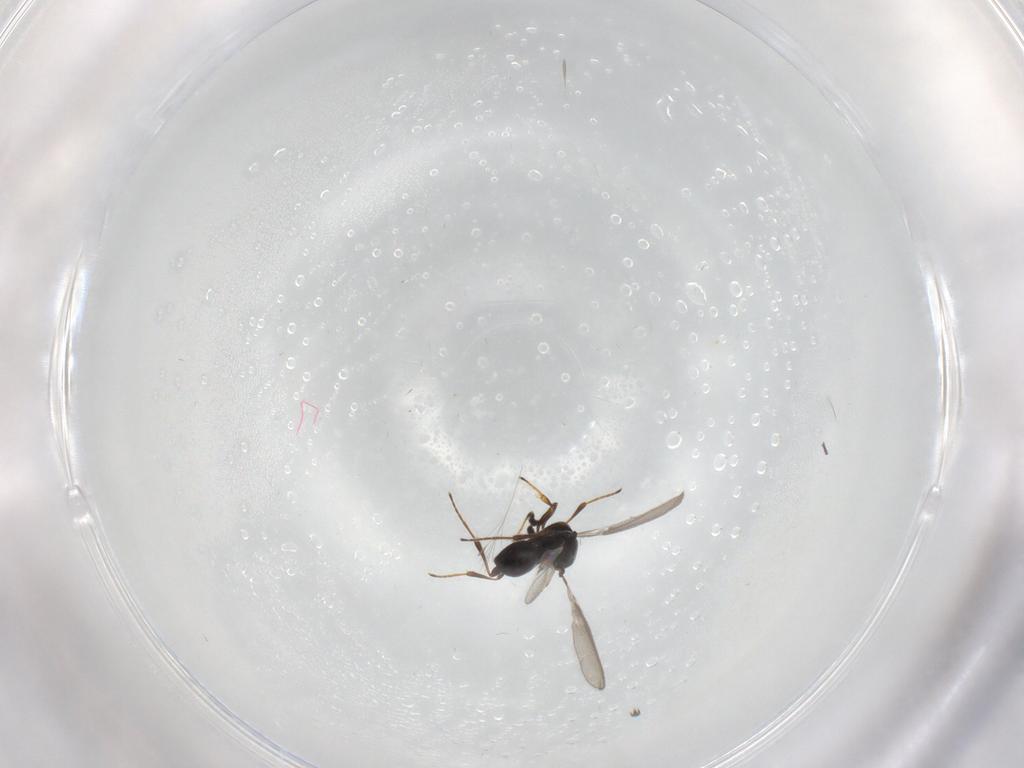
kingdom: Animalia
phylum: Arthropoda
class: Insecta
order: Hymenoptera
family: Platygastridae
